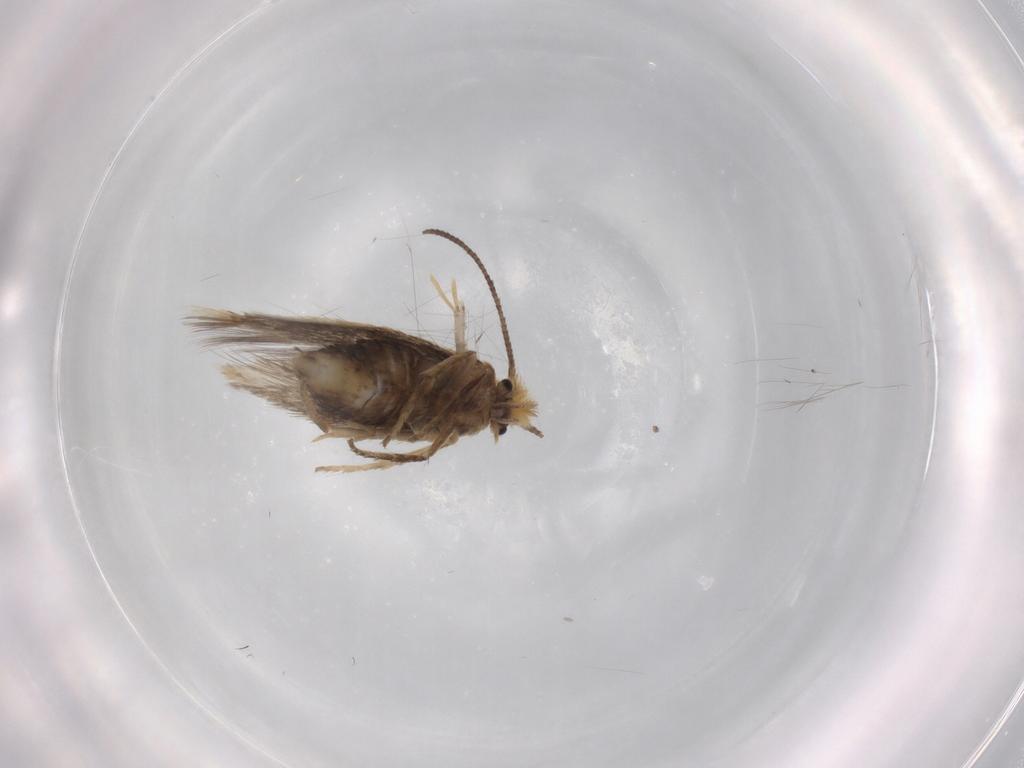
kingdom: Animalia
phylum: Arthropoda
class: Insecta
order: Lepidoptera
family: Nepticulidae
